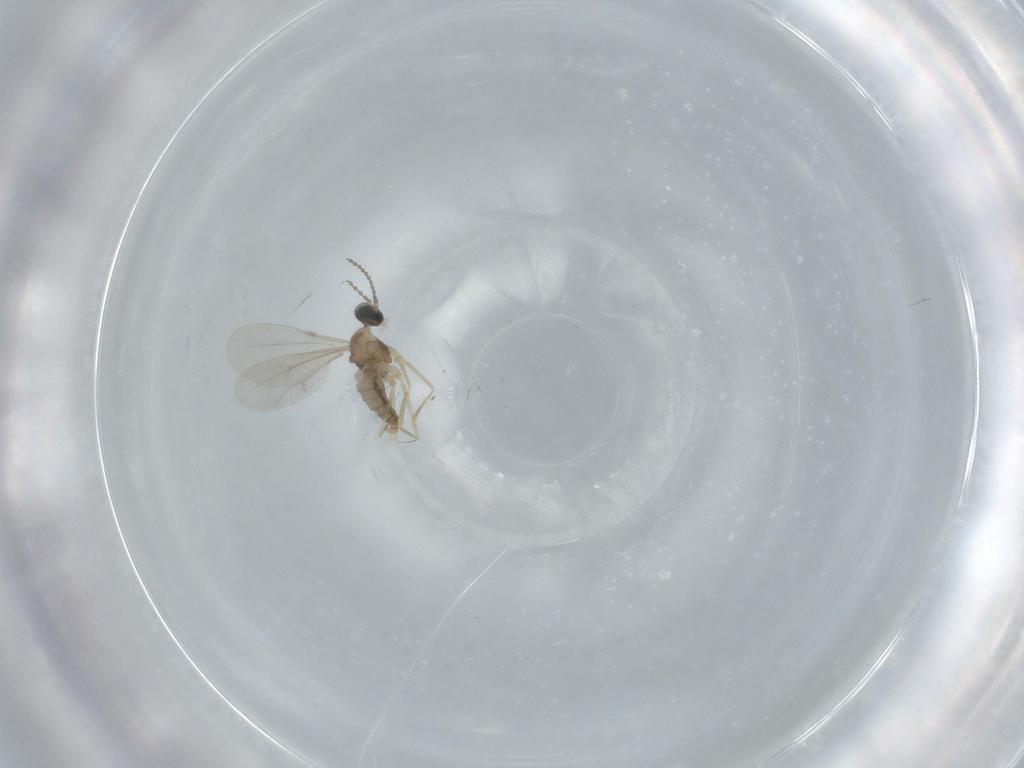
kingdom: Animalia
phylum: Arthropoda
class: Insecta
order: Diptera
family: Cecidomyiidae
